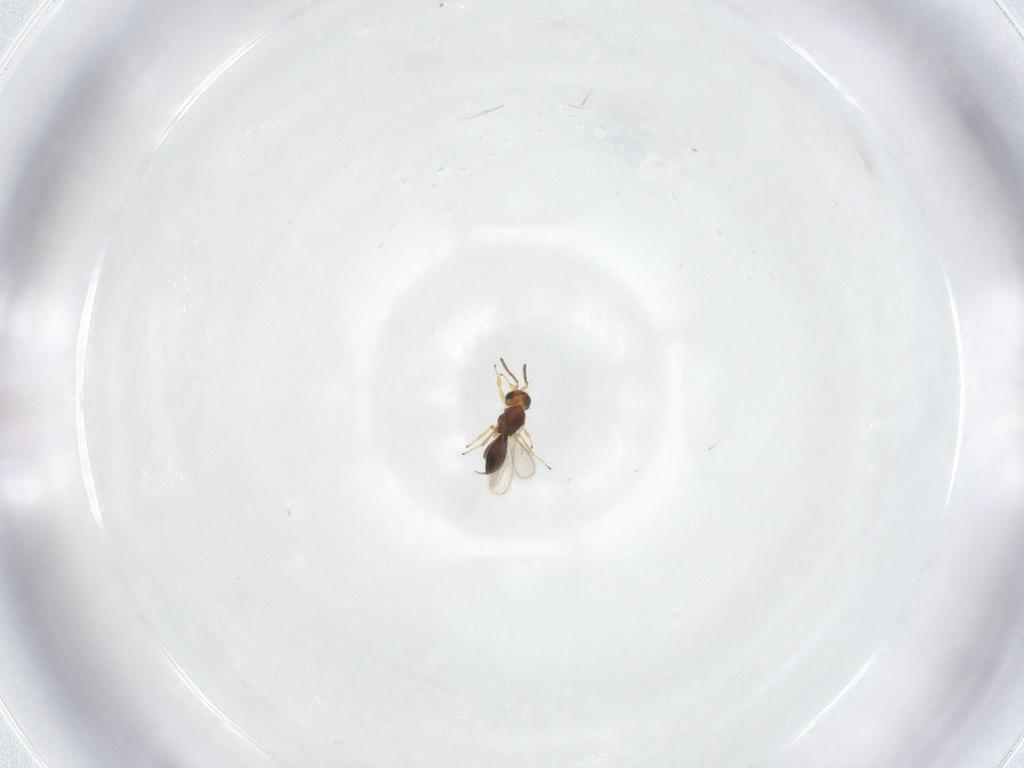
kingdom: Animalia
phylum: Arthropoda
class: Insecta
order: Hymenoptera
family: Scelionidae
